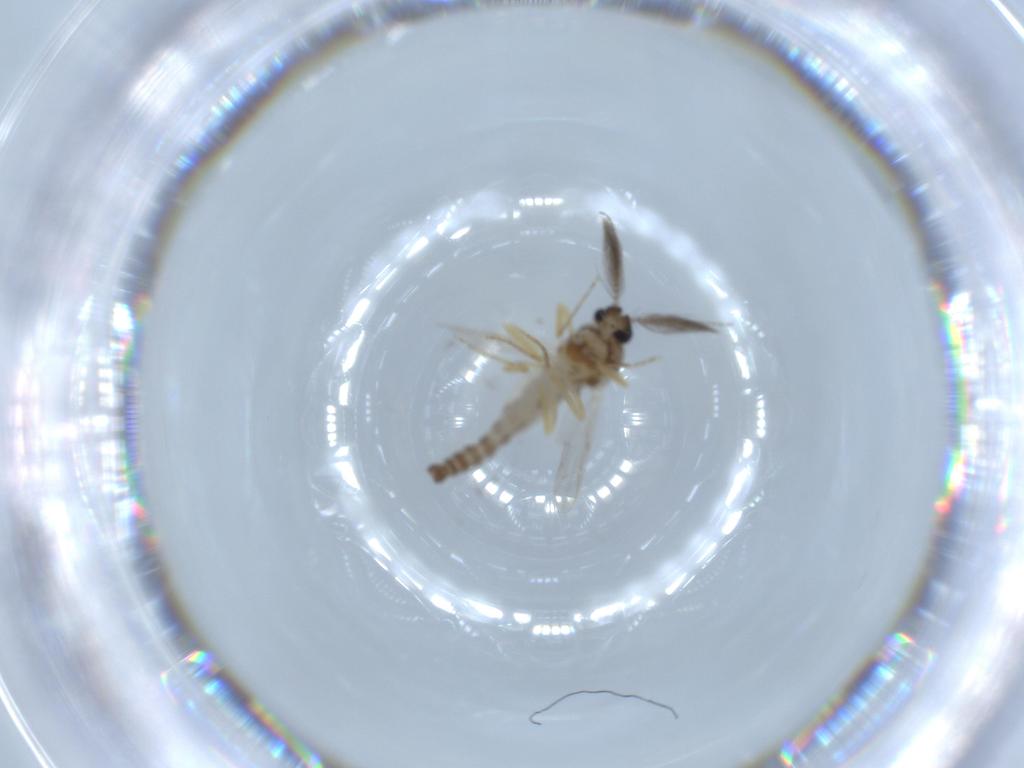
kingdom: Animalia
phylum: Arthropoda
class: Insecta
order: Diptera
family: Ceratopogonidae
